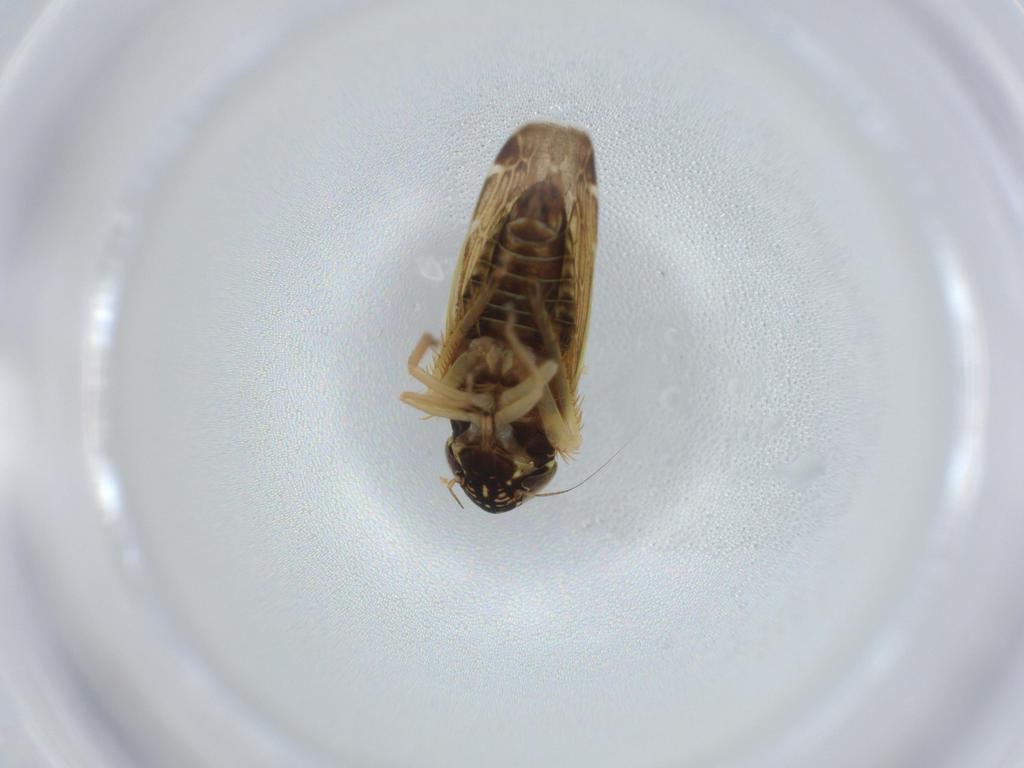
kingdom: Animalia
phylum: Arthropoda
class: Insecta
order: Hemiptera
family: Cicadellidae
